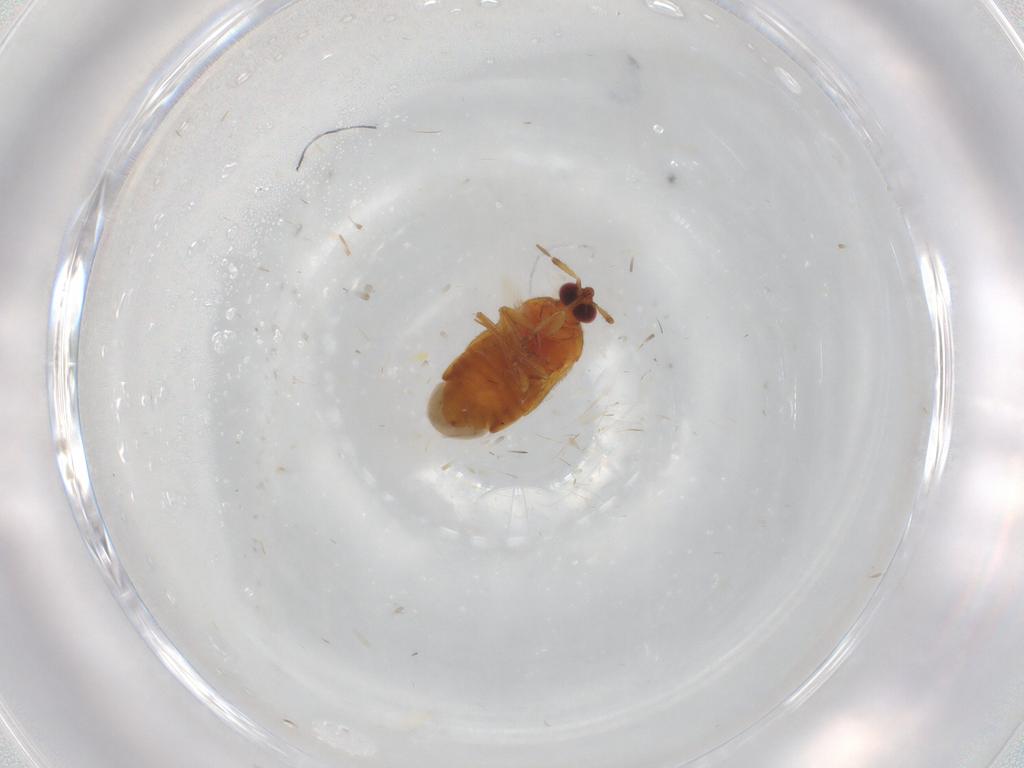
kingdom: Animalia
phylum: Arthropoda
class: Insecta
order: Hemiptera
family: Anthocoridae
